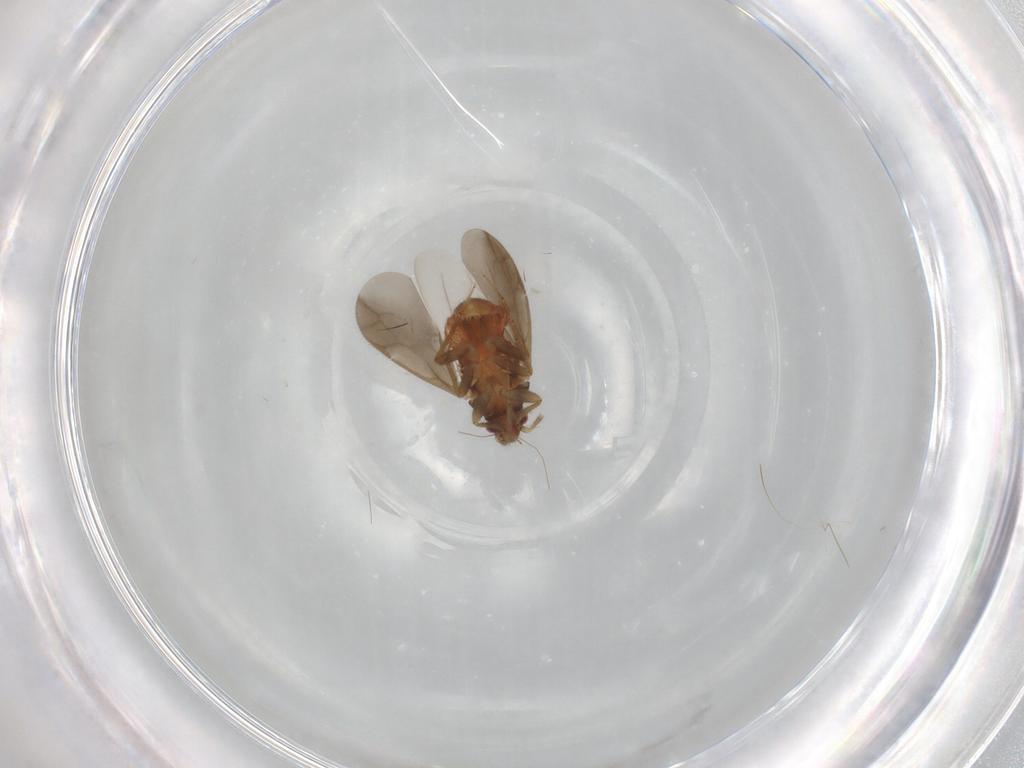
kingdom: Animalia
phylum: Arthropoda
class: Insecta
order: Hemiptera
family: Ceratocombidae
